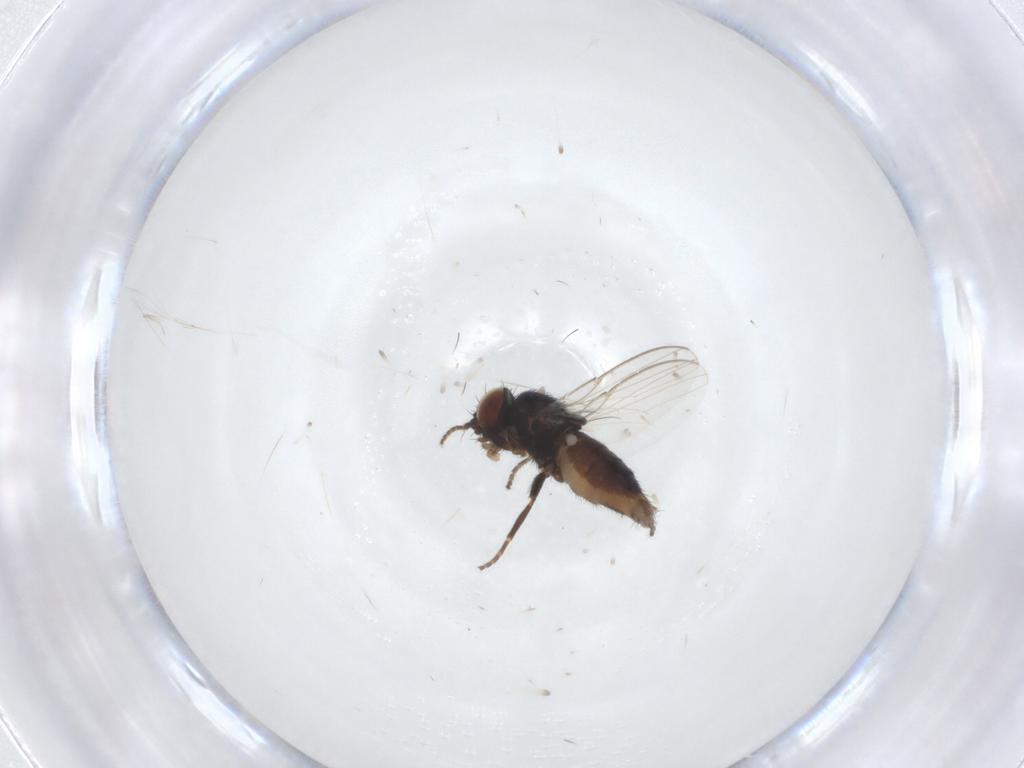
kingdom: Animalia
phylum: Arthropoda
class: Insecta
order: Diptera
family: Milichiidae
